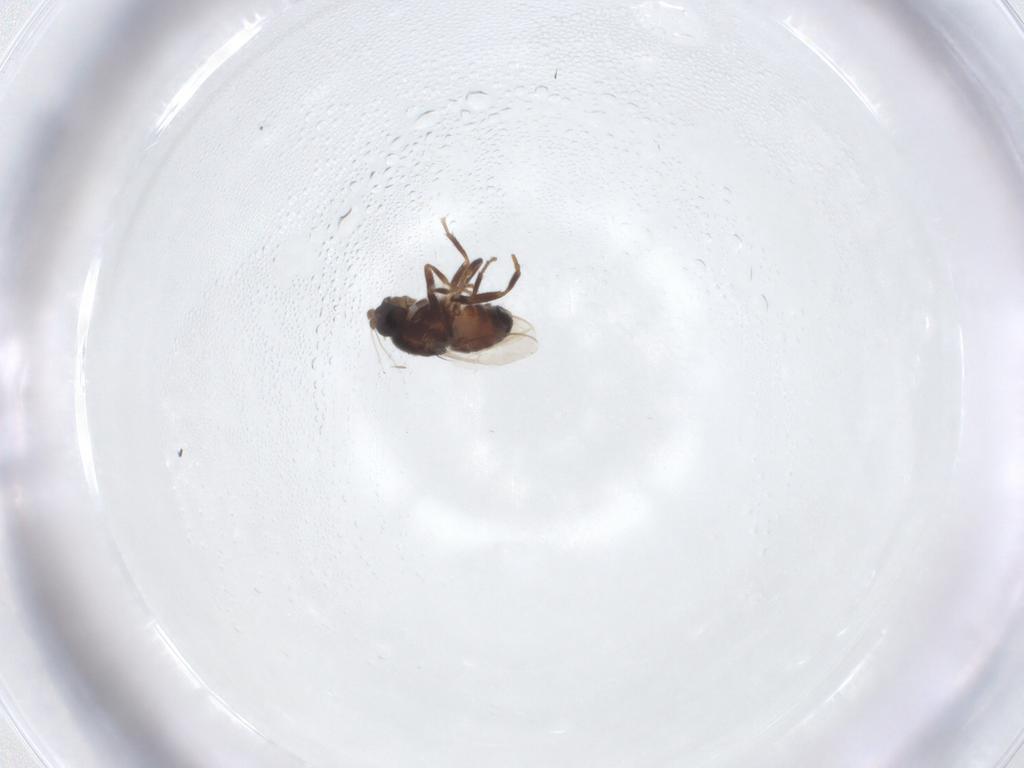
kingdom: Animalia
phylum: Arthropoda
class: Insecta
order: Diptera
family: Sphaeroceridae
